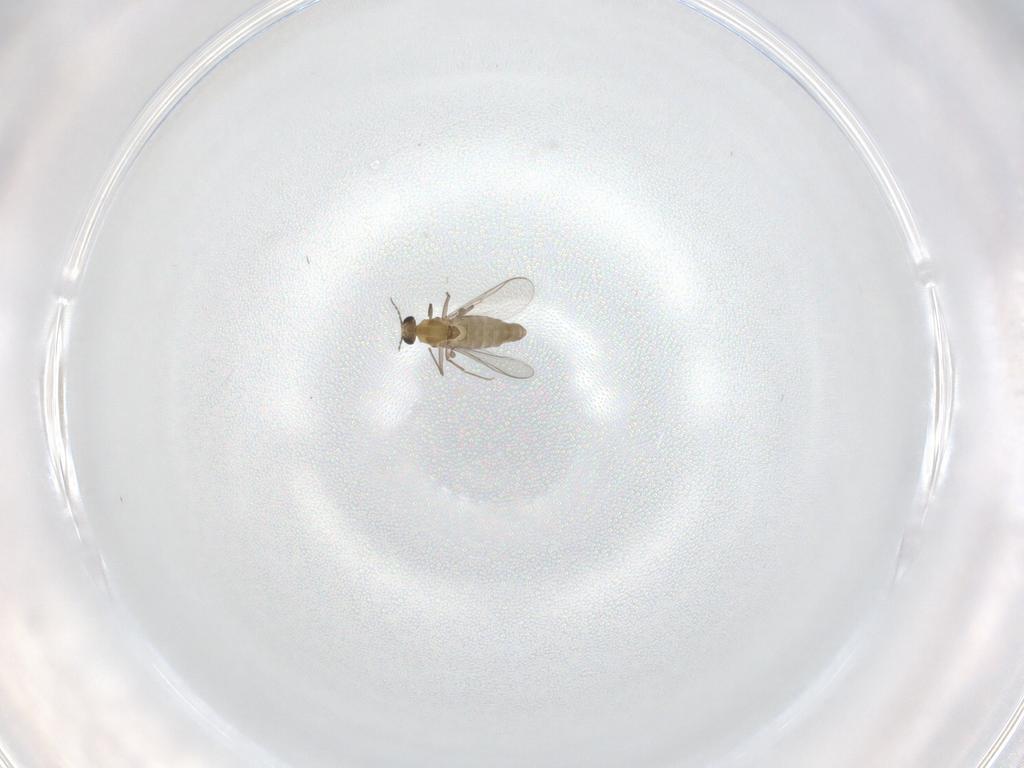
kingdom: Animalia
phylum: Arthropoda
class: Insecta
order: Diptera
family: Chironomidae
